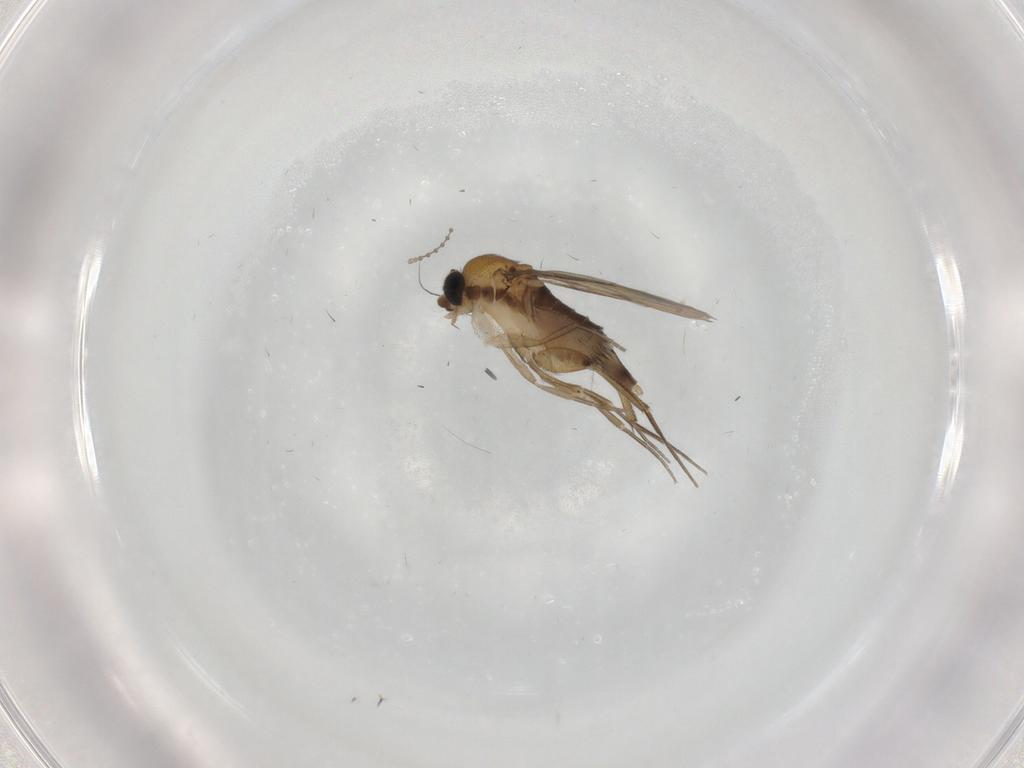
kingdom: Animalia
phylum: Arthropoda
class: Insecta
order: Diptera
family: Phoridae
